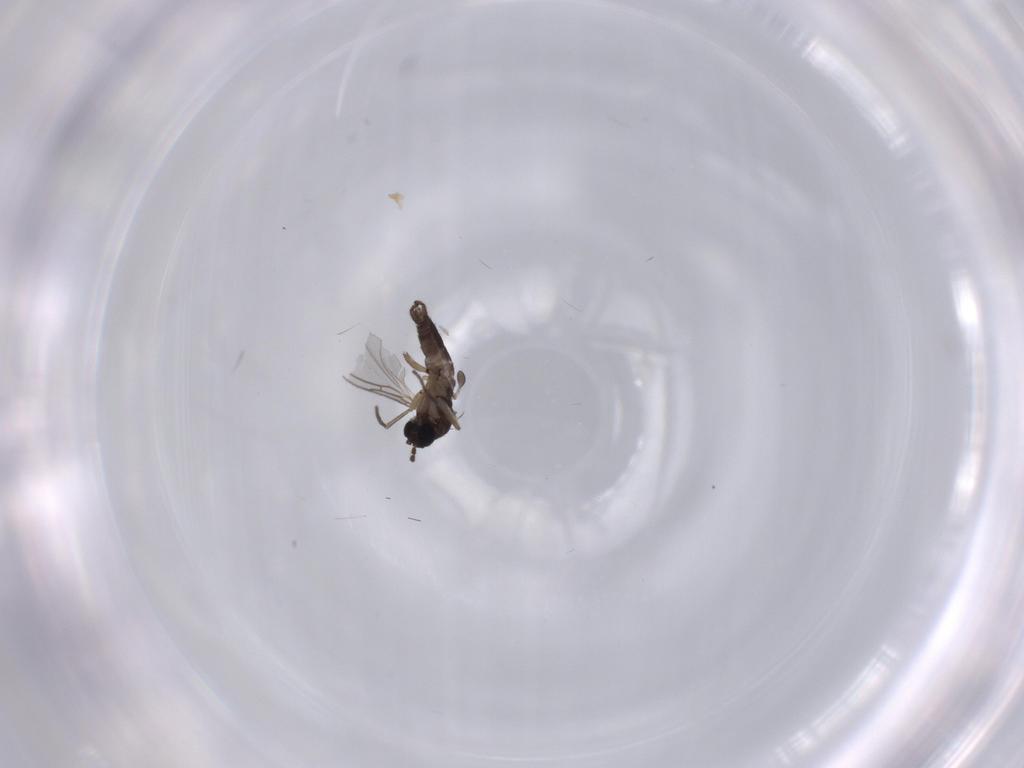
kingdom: Animalia
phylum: Arthropoda
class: Insecta
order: Diptera
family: Sciaridae
